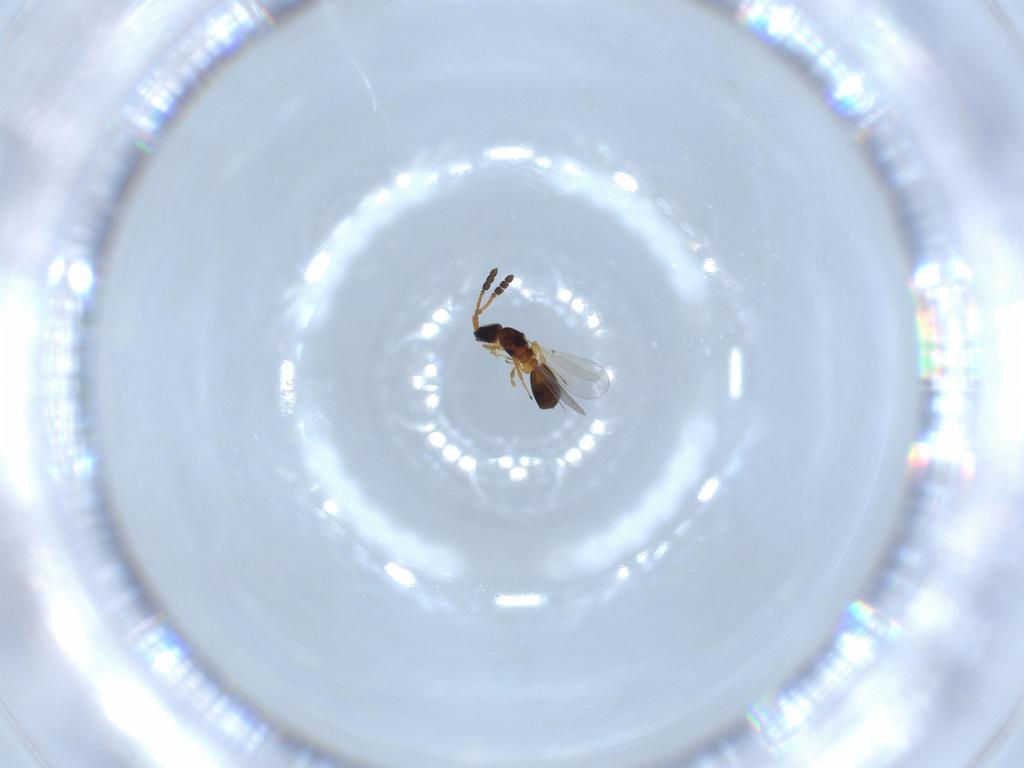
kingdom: Animalia
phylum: Arthropoda
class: Insecta
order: Hymenoptera
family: Diapriidae
